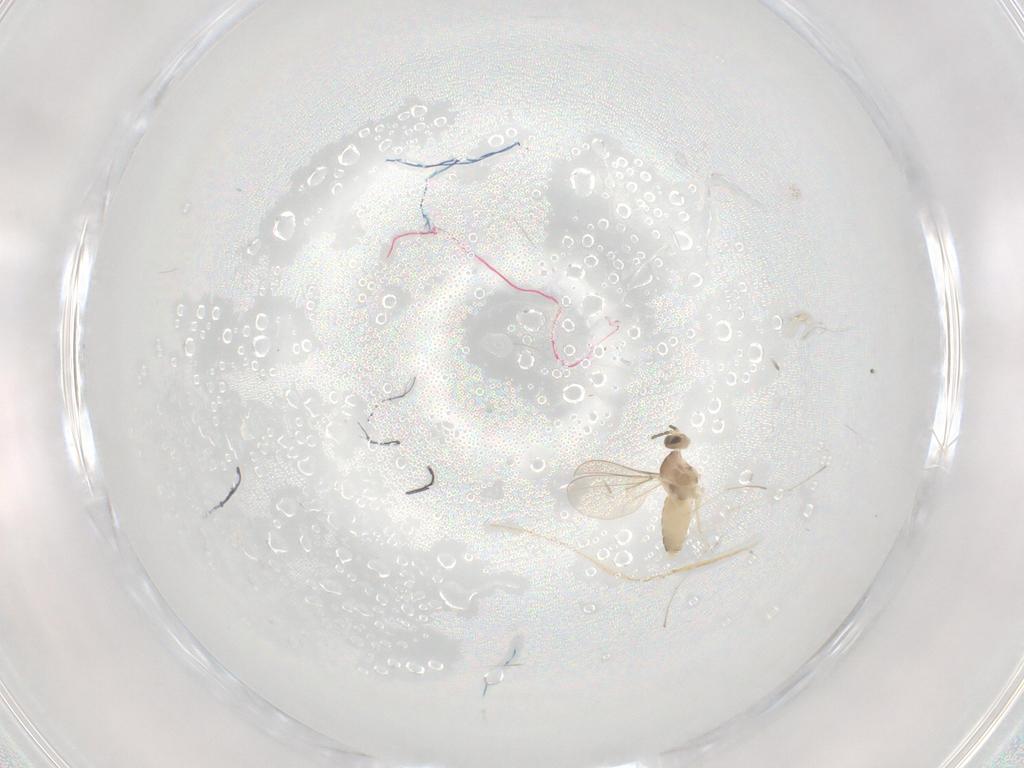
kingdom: Animalia
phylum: Arthropoda
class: Insecta
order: Diptera
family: Cecidomyiidae
